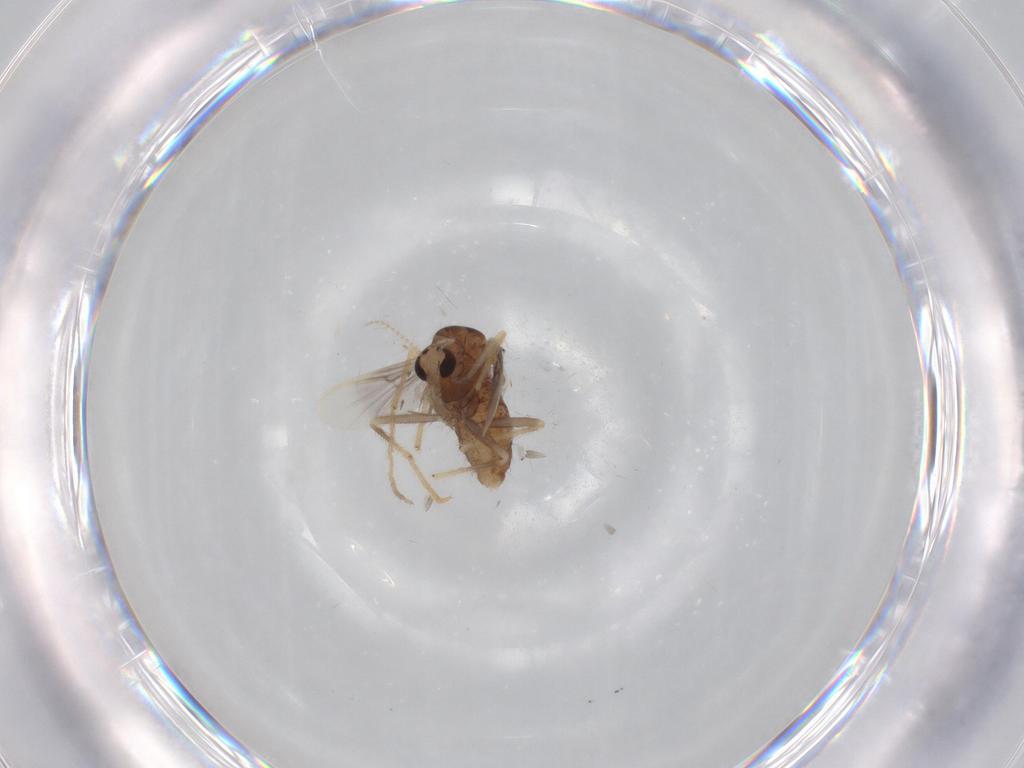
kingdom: Animalia
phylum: Arthropoda
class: Insecta
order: Diptera
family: Chironomidae
